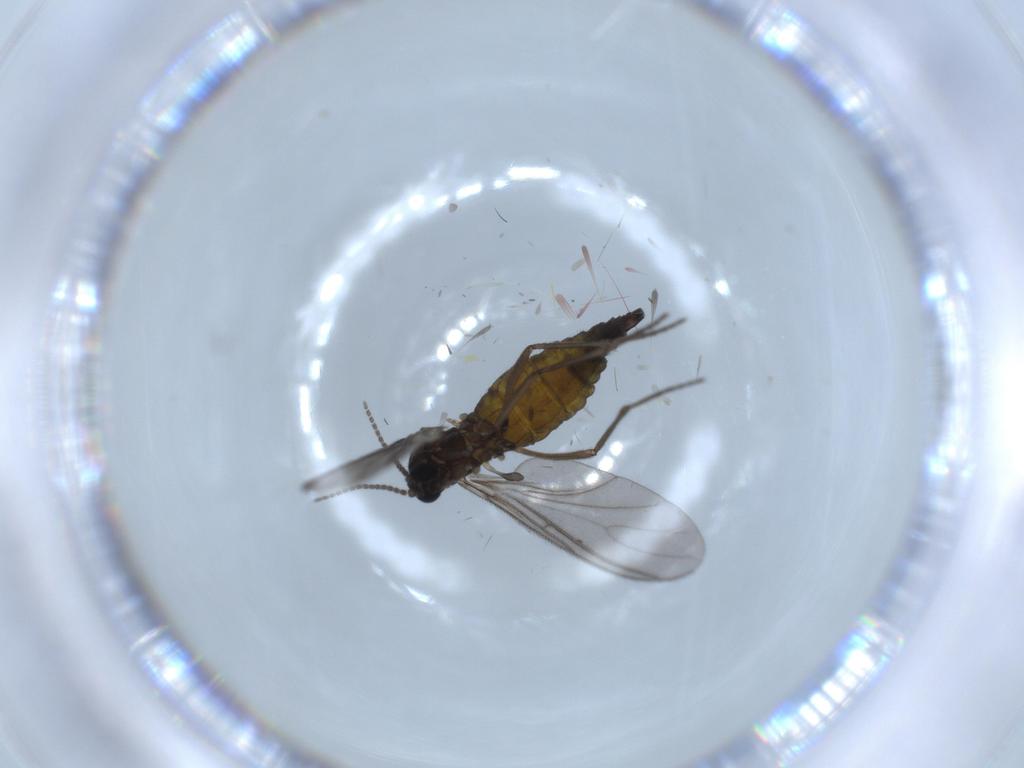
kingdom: Animalia
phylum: Arthropoda
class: Insecta
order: Diptera
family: Sciaridae
